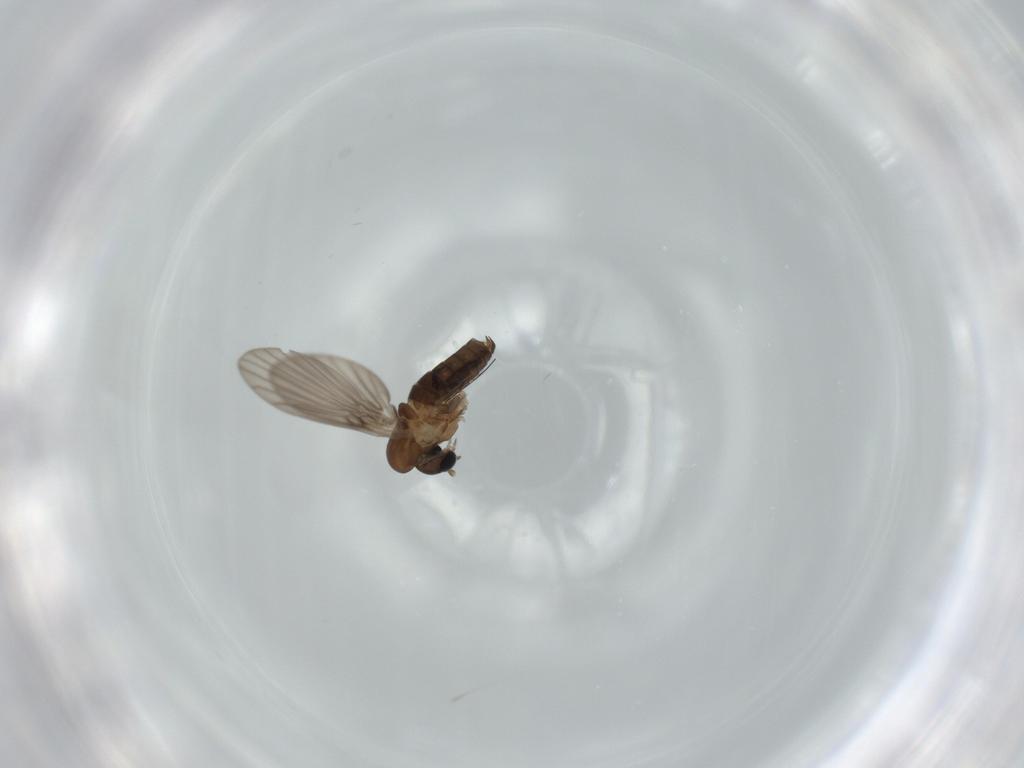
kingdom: Animalia
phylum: Arthropoda
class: Insecta
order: Diptera
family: Psychodidae
